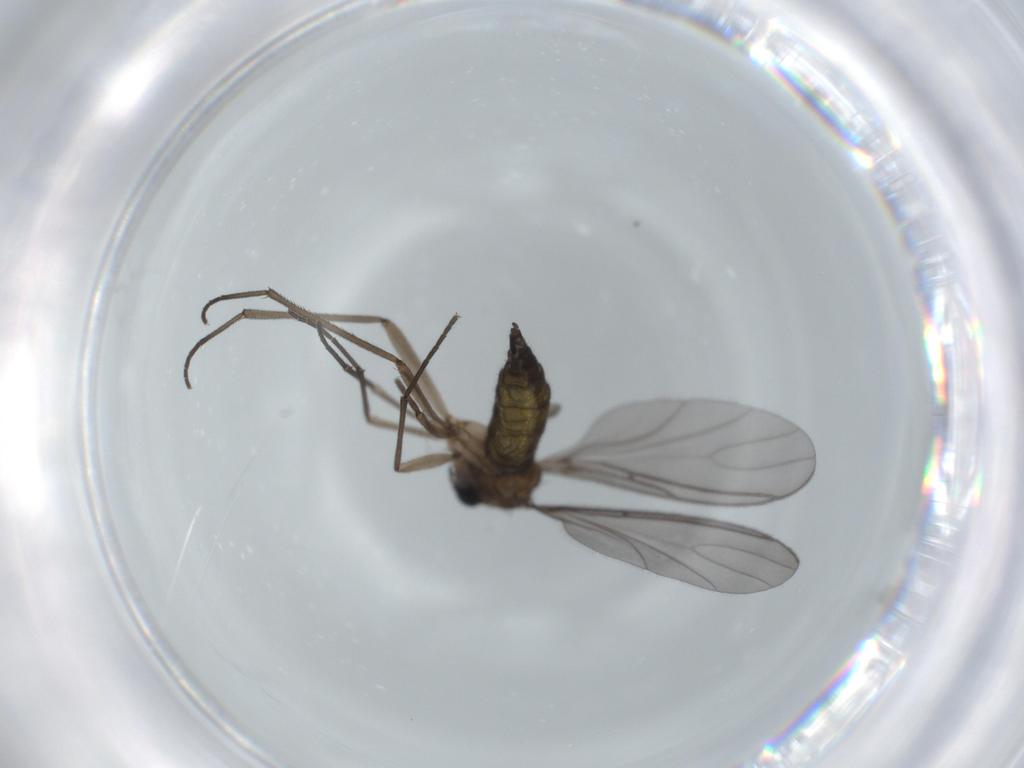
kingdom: Animalia
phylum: Arthropoda
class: Insecta
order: Diptera
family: Sciaridae
